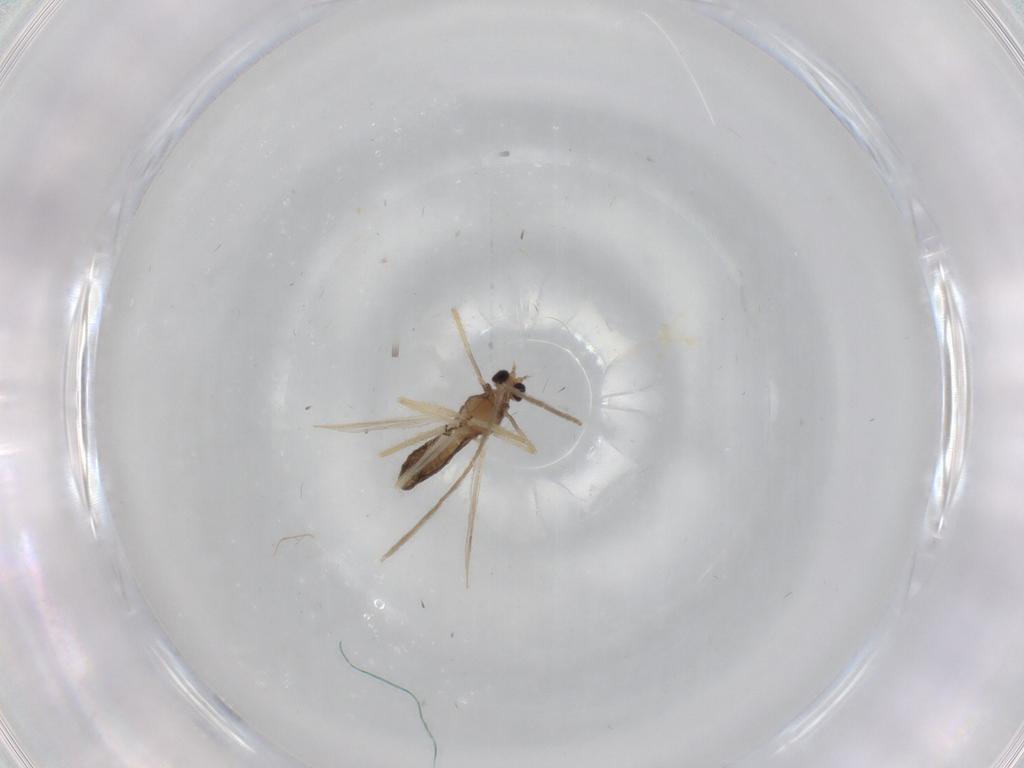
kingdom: Animalia
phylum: Arthropoda
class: Insecta
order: Diptera
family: Chironomidae
